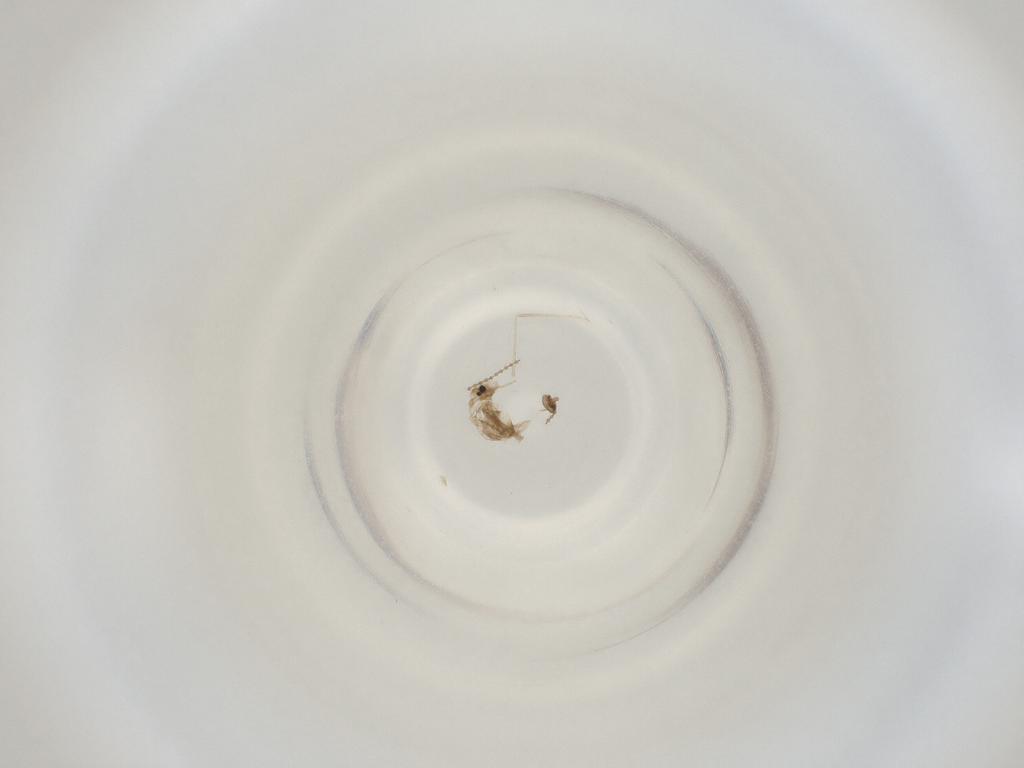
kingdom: Animalia
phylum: Arthropoda
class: Insecta
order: Diptera
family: Cecidomyiidae
